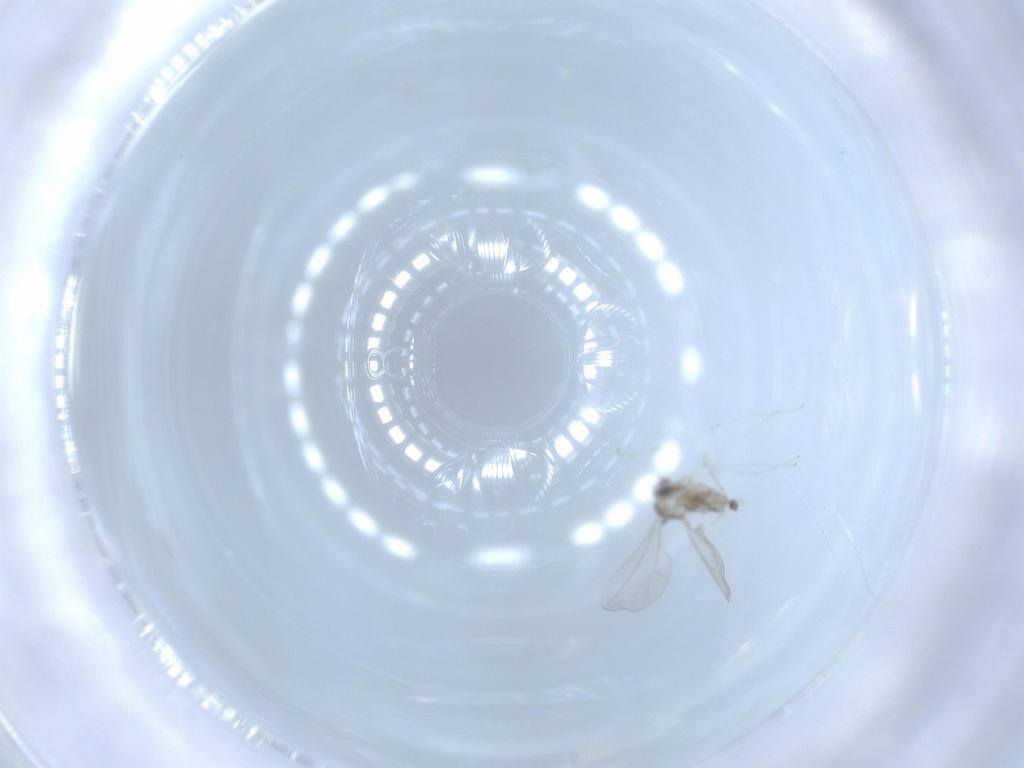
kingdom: Animalia
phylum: Arthropoda
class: Insecta
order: Diptera
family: Cecidomyiidae
